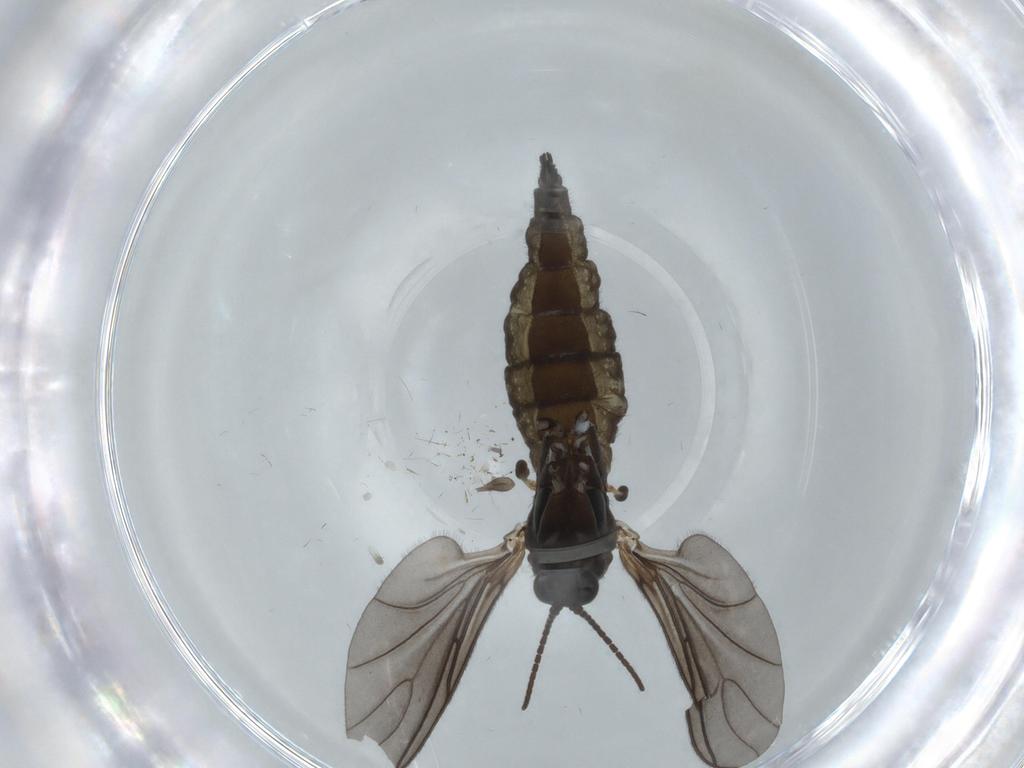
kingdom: Animalia
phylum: Arthropoda
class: Insecta
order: Diptera
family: Sciaridae
